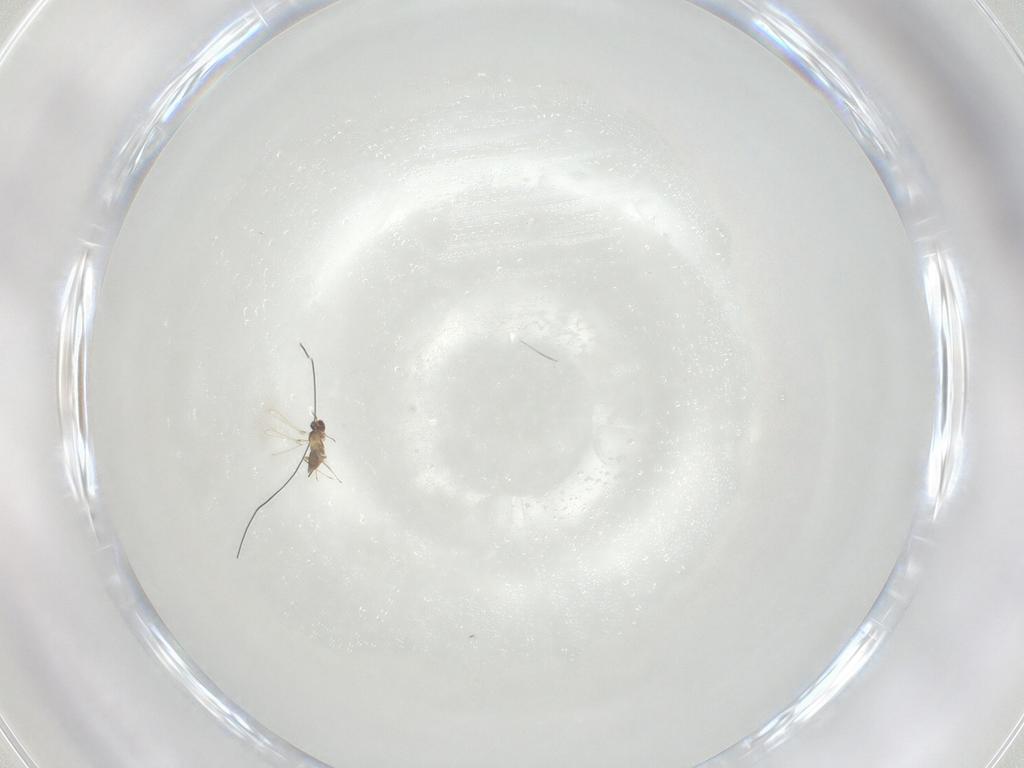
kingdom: Animalia
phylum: Arthropoda
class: Insecta
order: Hymenoptera
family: Mymaridae
